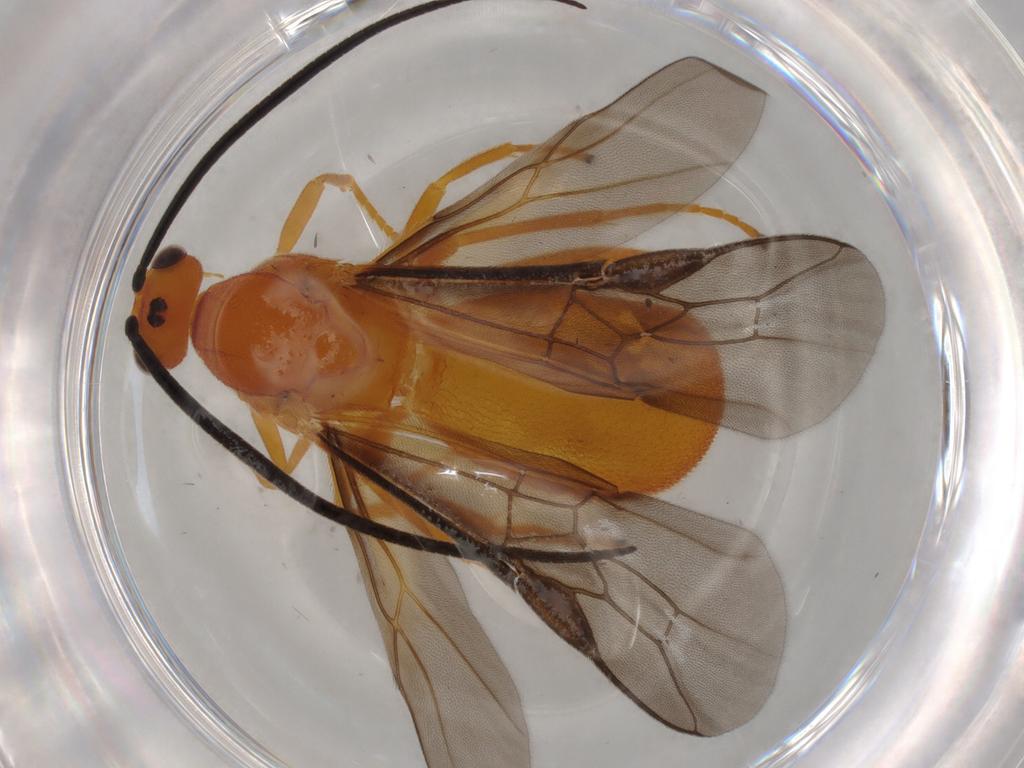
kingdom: Animalia
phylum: Arthropoda
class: Insecta
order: Hymenoptera
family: Braconidae
